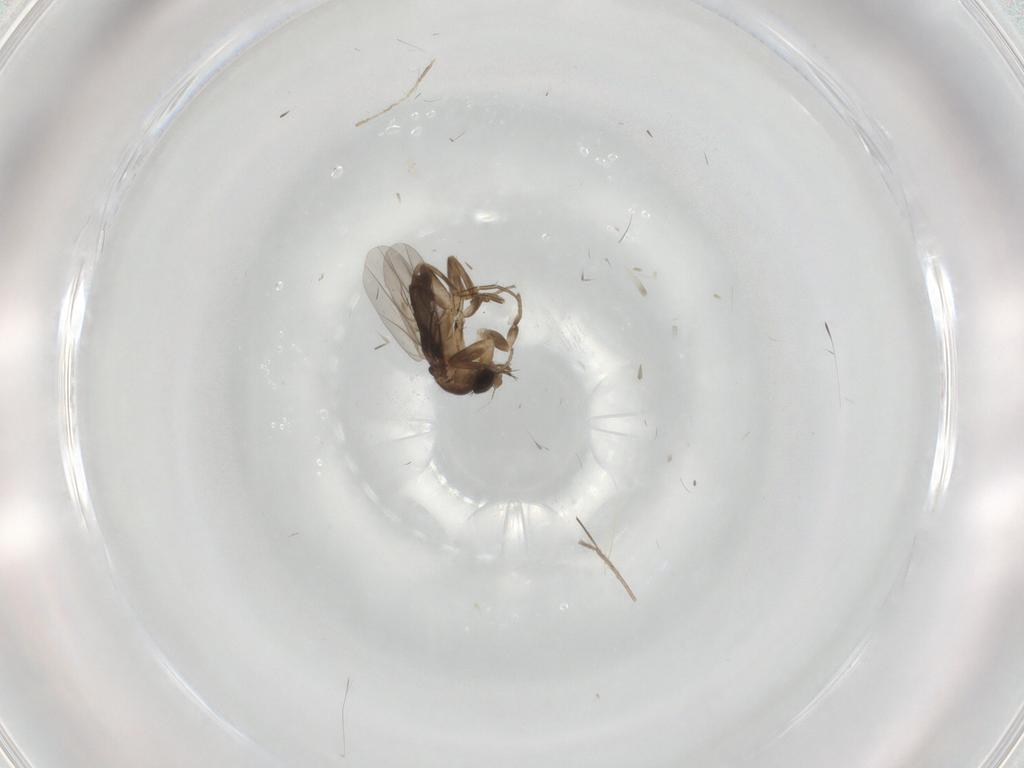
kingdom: Animalia
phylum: Arthropoda
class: Insecta
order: Diptera
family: Phoridae
